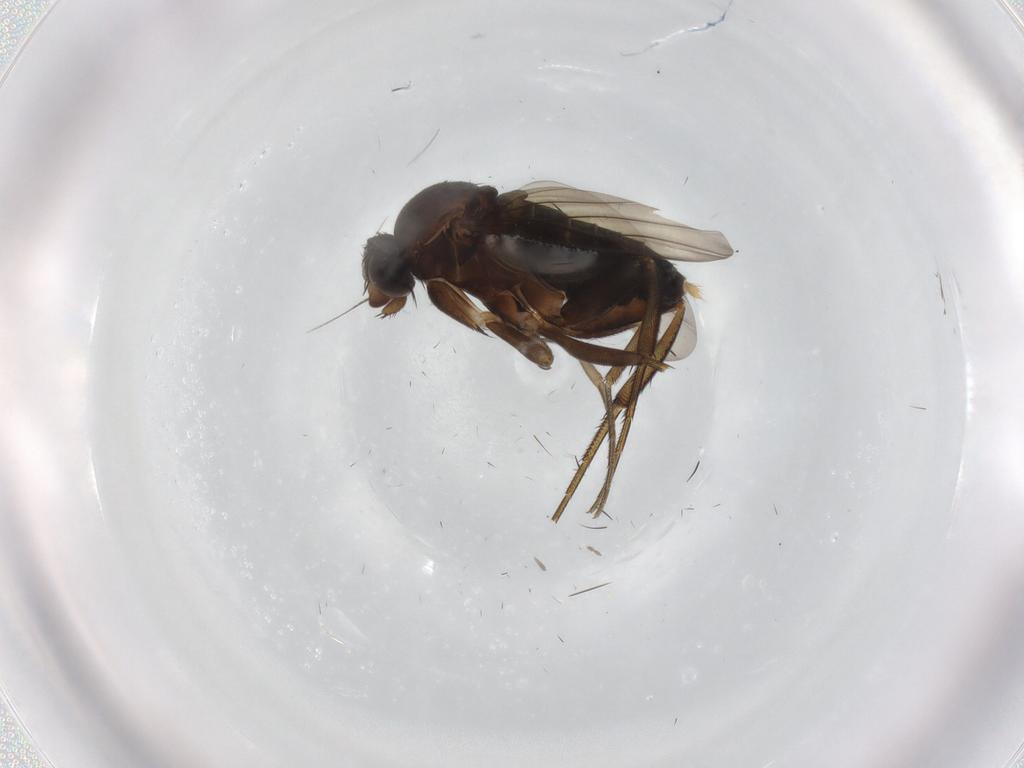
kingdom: Animalia
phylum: Arthropoda
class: Insecta
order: Diptera
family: Phoridae
